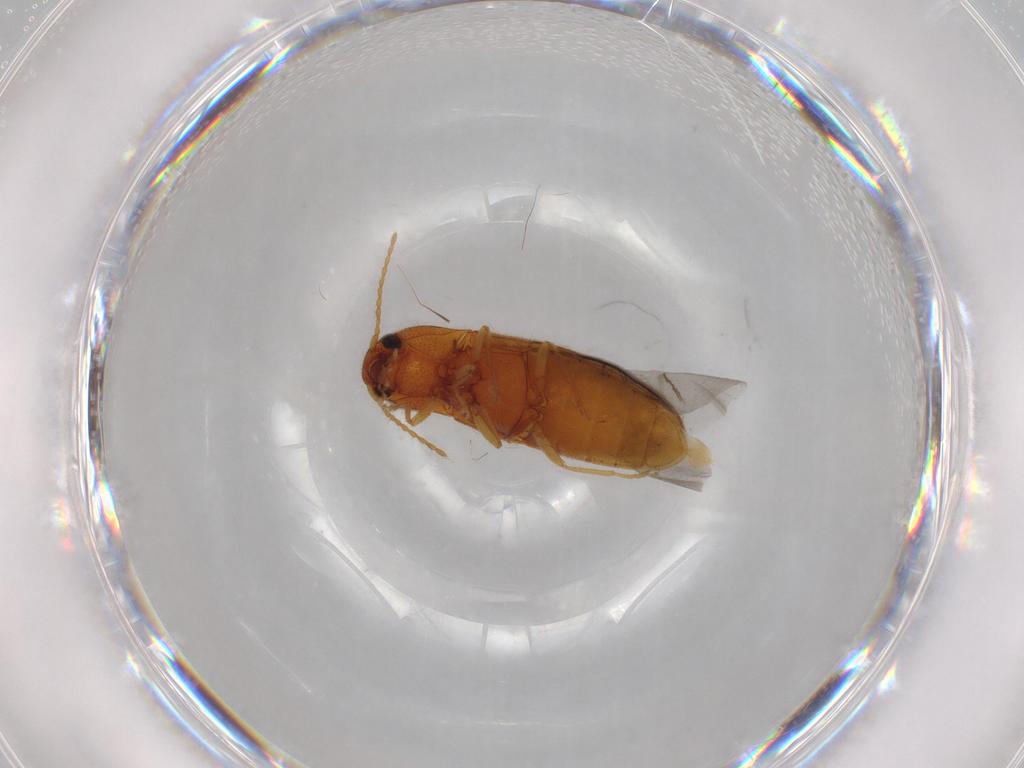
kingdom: Animalia
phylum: Arthropoda
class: Insecta
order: Coleoptera
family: Elateridae
